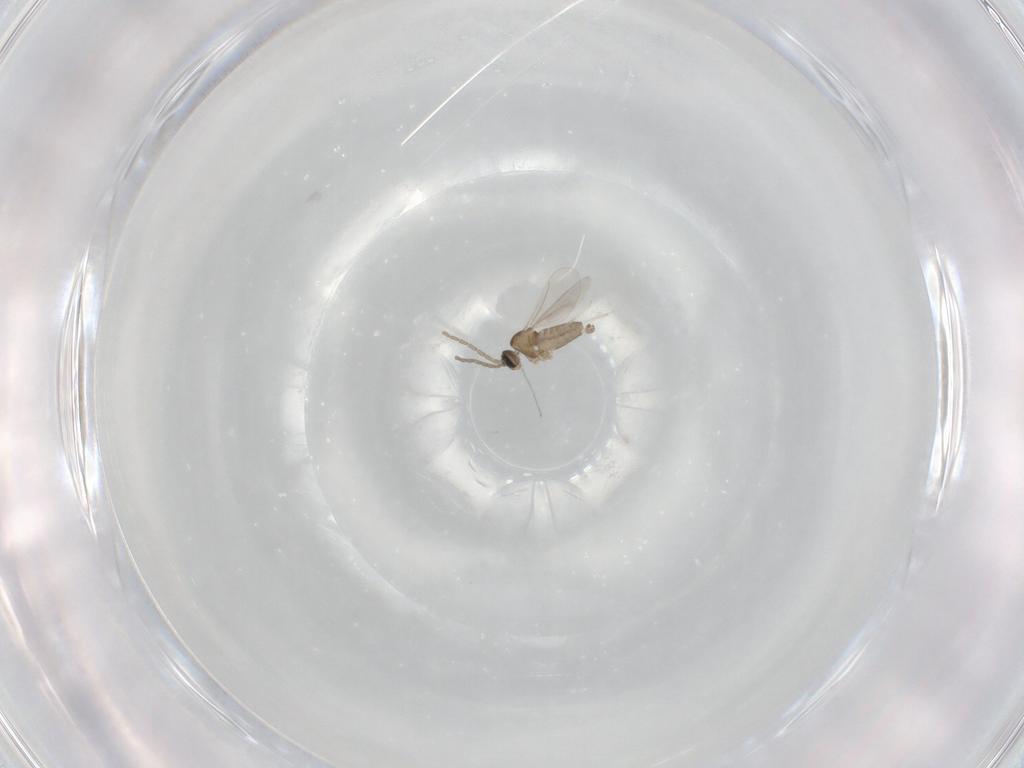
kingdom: Animalia
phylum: Arthropoda
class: Insecta
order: Diptera
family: Cecidomyiidae
